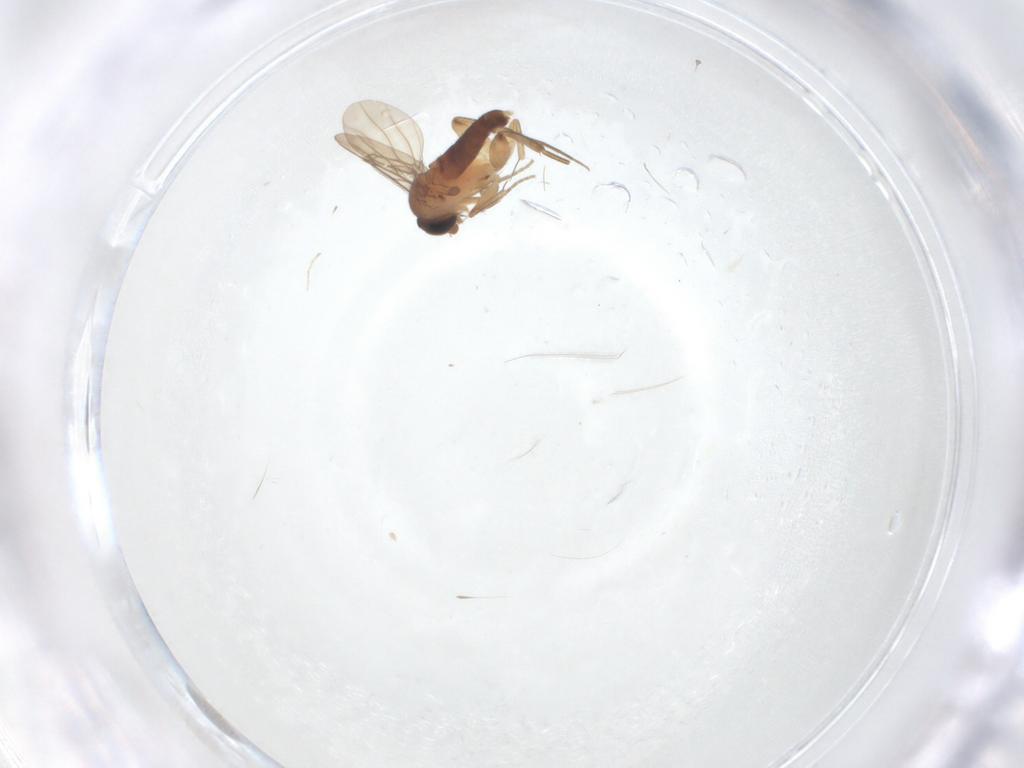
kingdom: Animalia
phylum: Arthropoda
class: Insecta
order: Diptera
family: Phoridae
